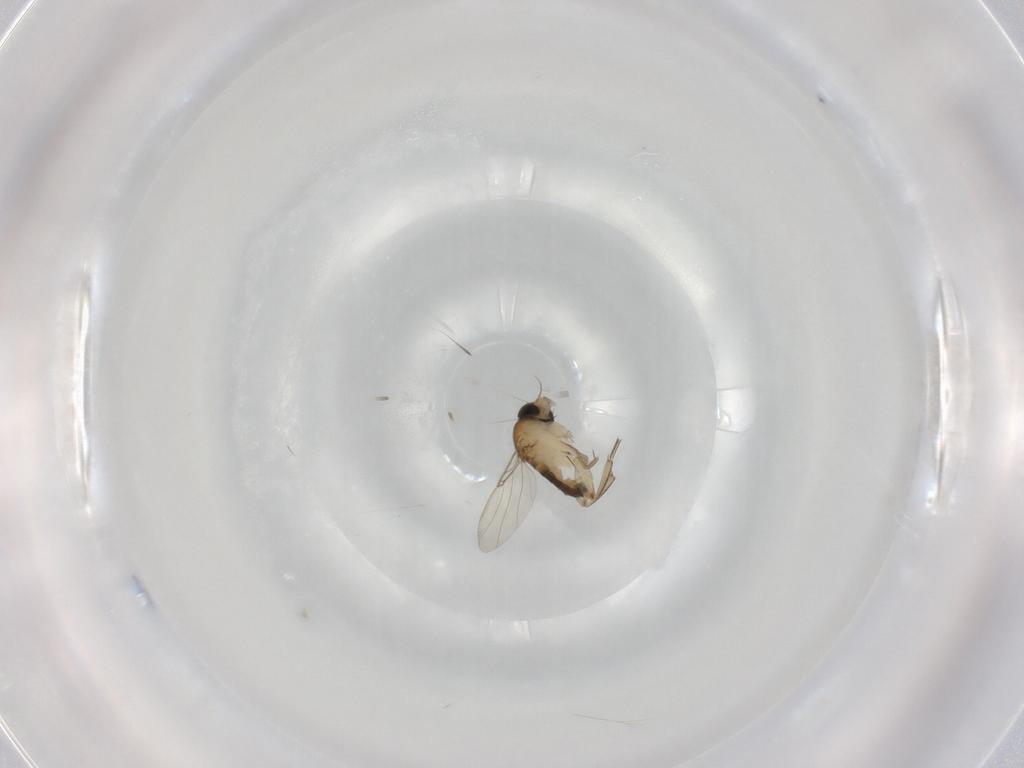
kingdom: Animalia
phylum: Arthropoda
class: Insecta
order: Diptera
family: Phoridae
